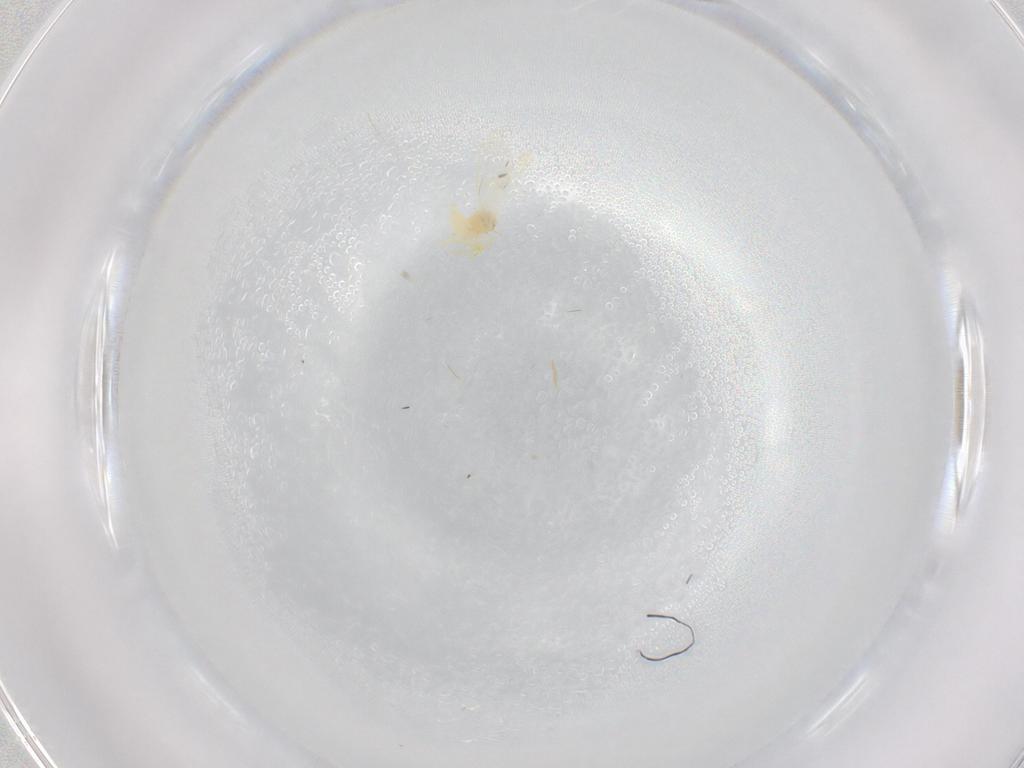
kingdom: Animalia
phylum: Arthropoda
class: Insecta
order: Hemiptera
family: Aleyrodidae
